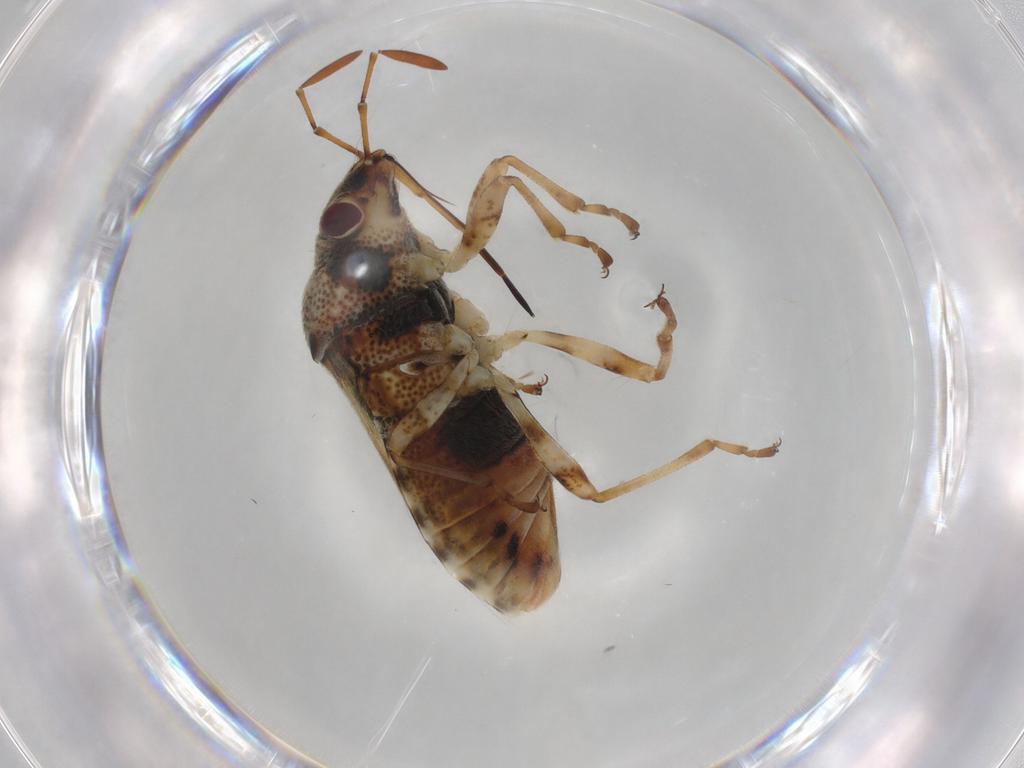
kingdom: Animalia
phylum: Arthropoda
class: Insecta
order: Hemiptera
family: Lygaeidae
